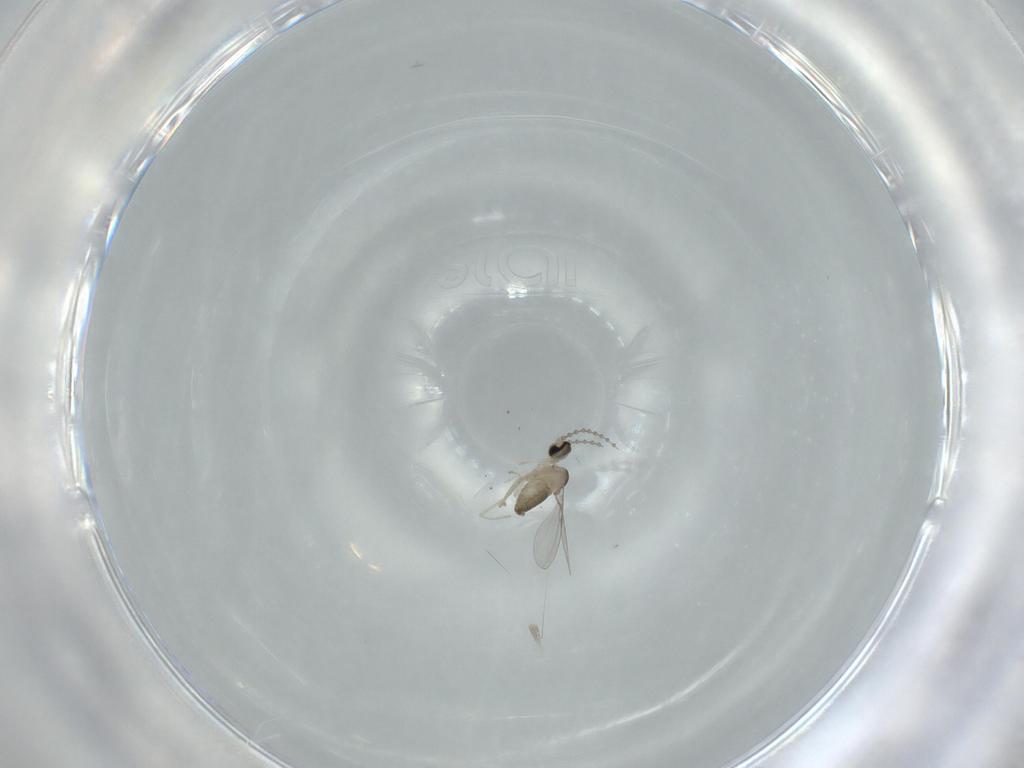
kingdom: Animalia
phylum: Arthropoda
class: Insecta
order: Diptera
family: Cecidomyiidae
